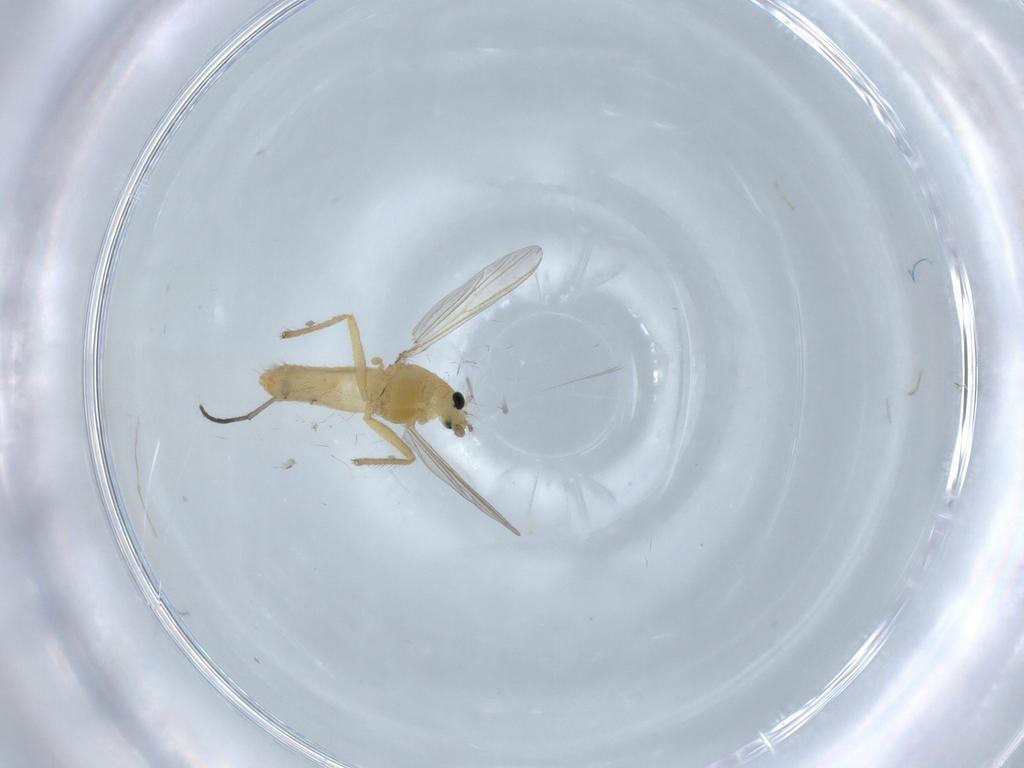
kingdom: Animalia
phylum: Arthropoda
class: Insecta
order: Diptera
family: Chironomidae
